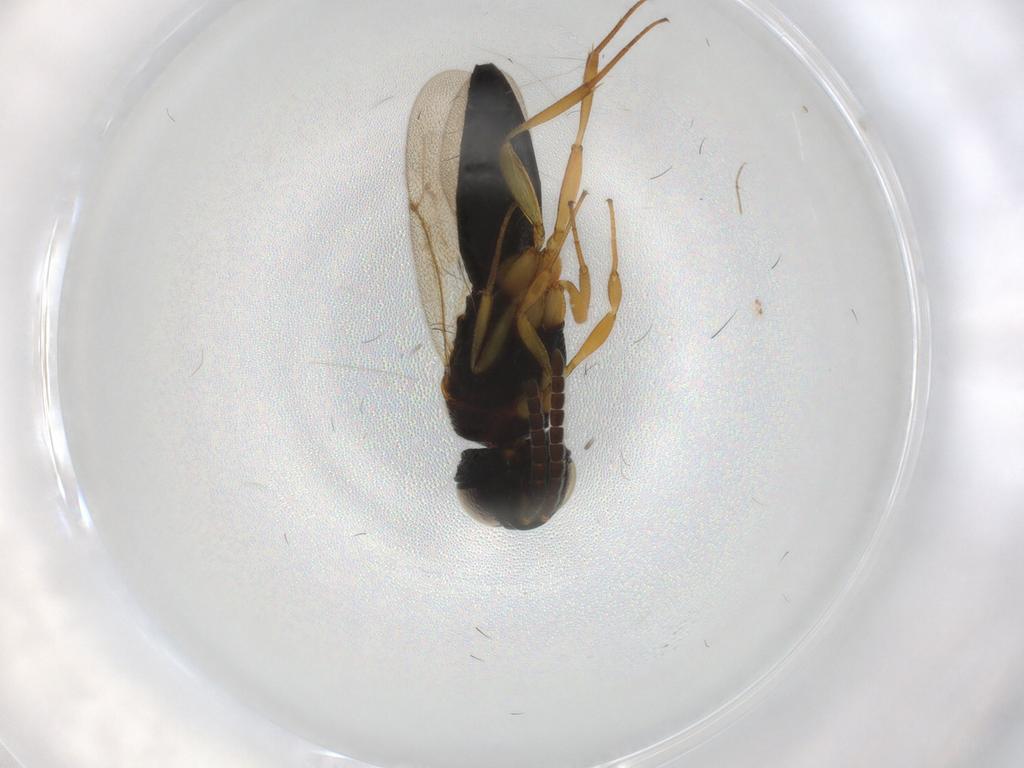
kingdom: Animalia
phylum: Arthropoda
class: Insecta
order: Hymenoptera
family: Scelionidae
